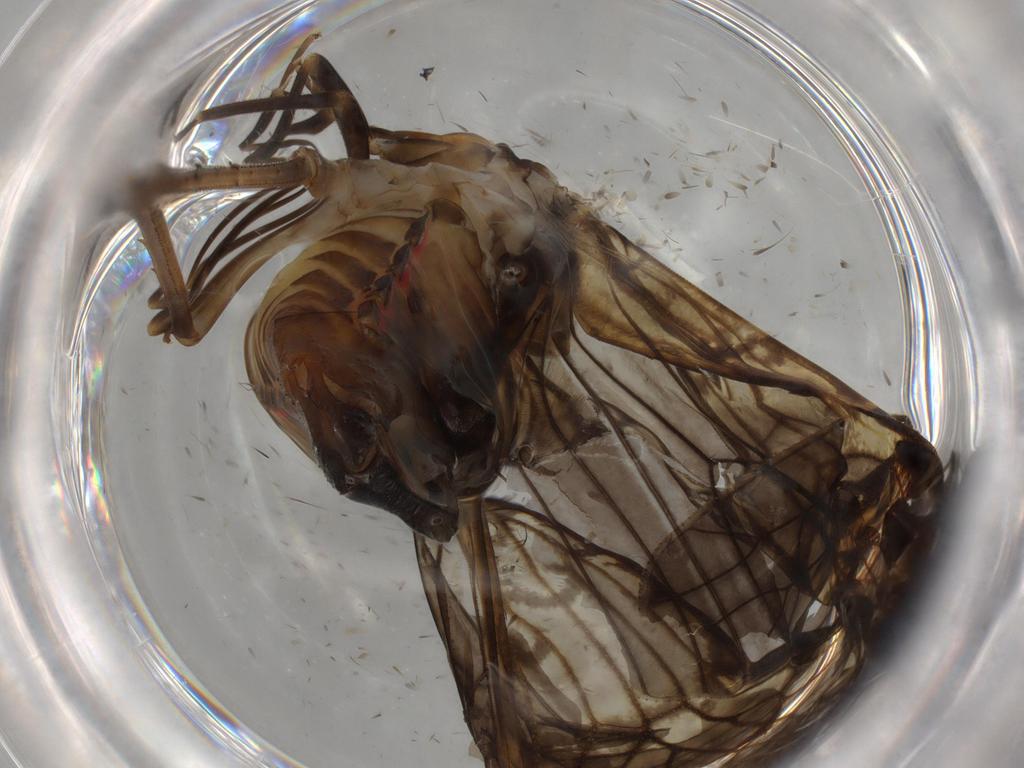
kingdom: Animalia
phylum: Arthropoda
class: Insecta
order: Hemiptera
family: Cixiidae
